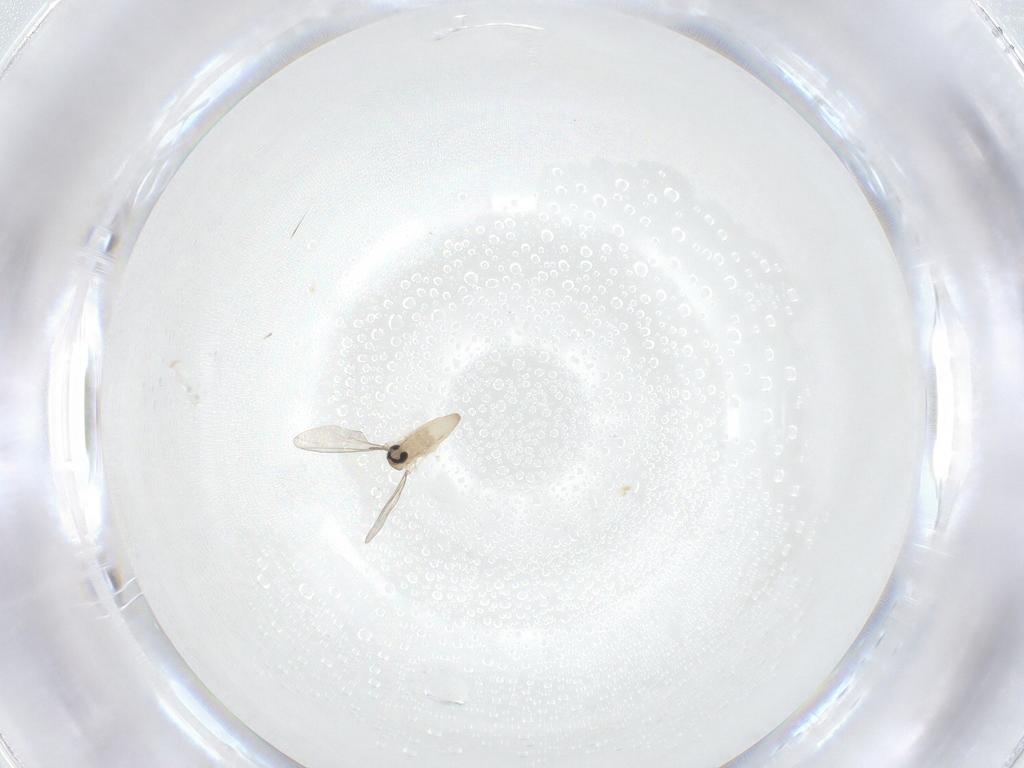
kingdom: Animalia
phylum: Arthropoda
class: Insecta
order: Diptera
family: Cecidomyiidae
